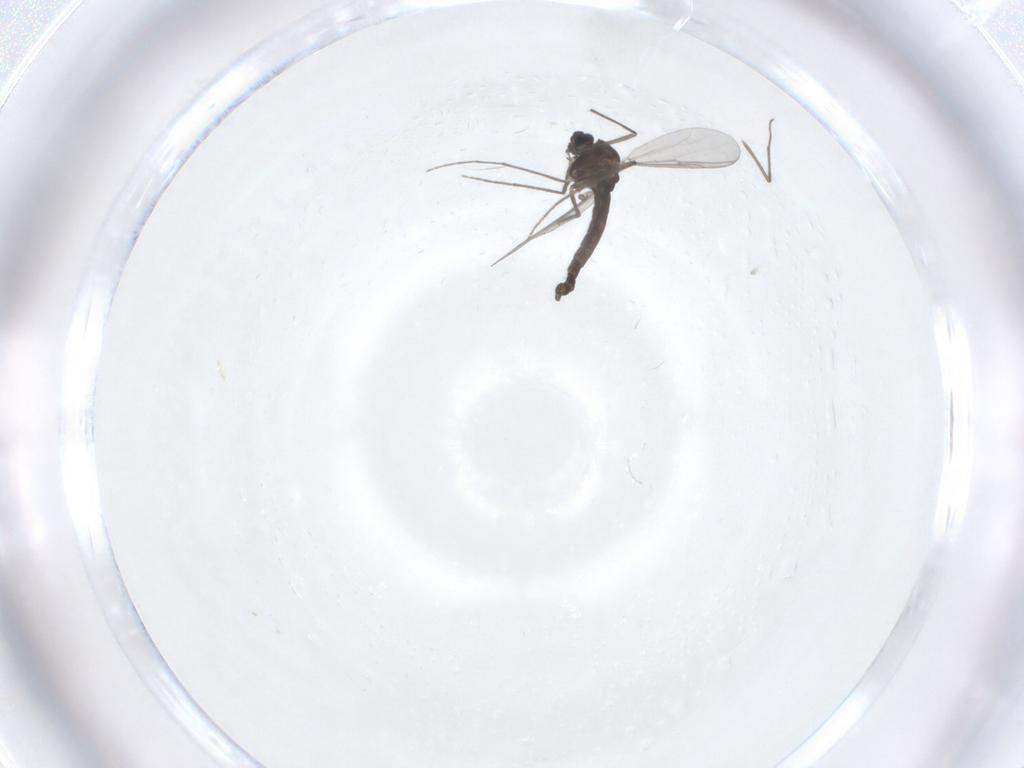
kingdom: Animalia
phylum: Arthropoda
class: Insecta
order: Diptera
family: Chironomidae
